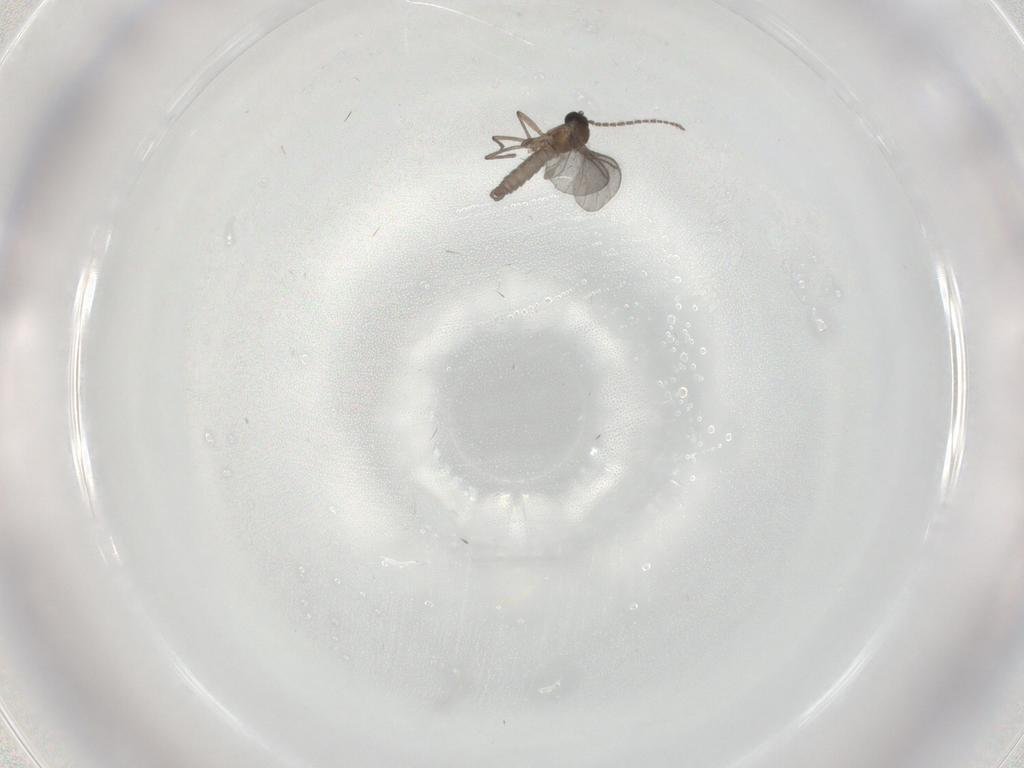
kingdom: Animalia
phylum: Arthropoda
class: Insecta
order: Diptera
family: Sciaridae
